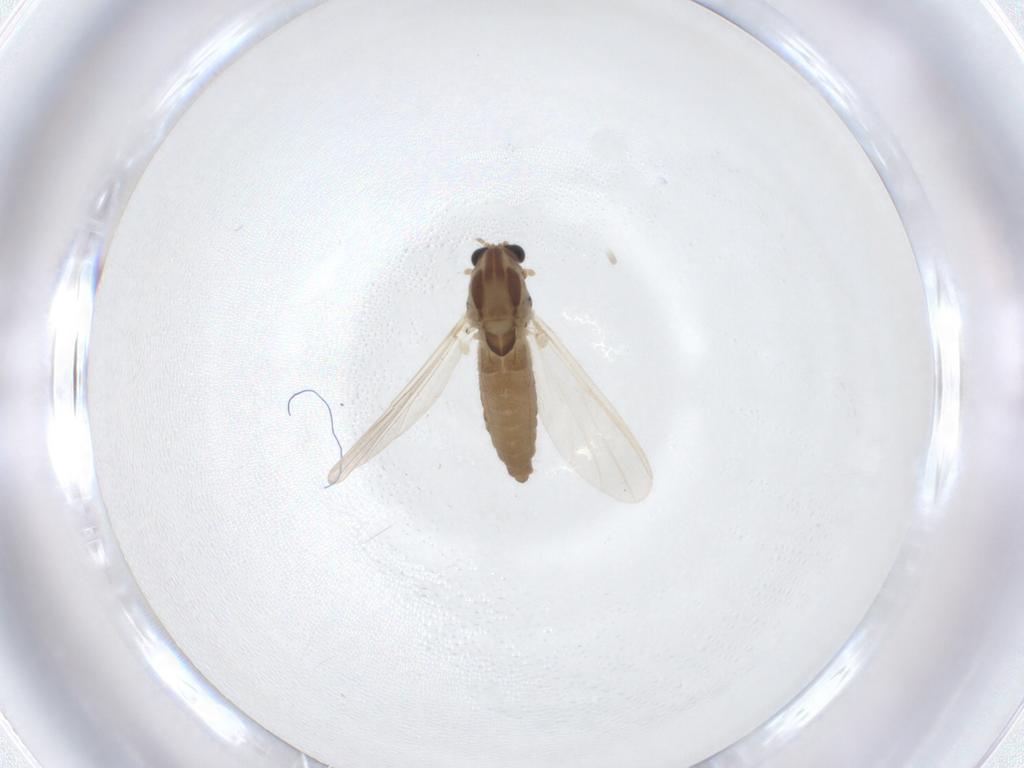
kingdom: Animalia
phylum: Arthropoda
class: Insecta
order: Diptera
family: Chironomidae
